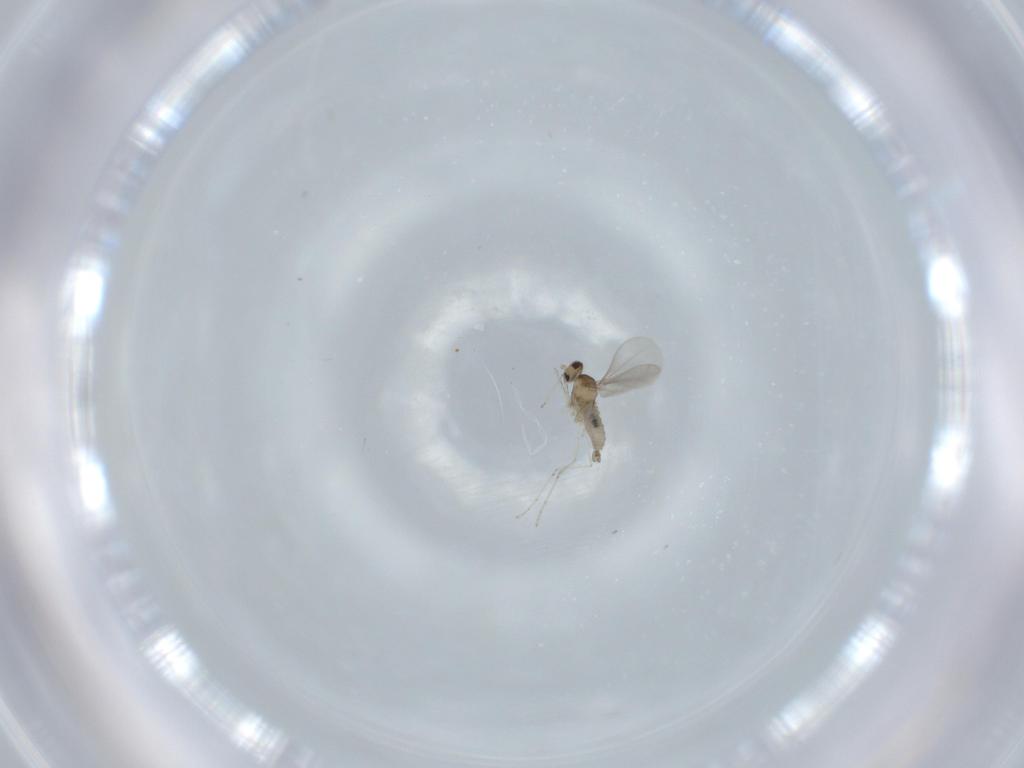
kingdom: Animalia
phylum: Arthropoda
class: Insecta
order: Diptera
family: Cecidomyiidae
